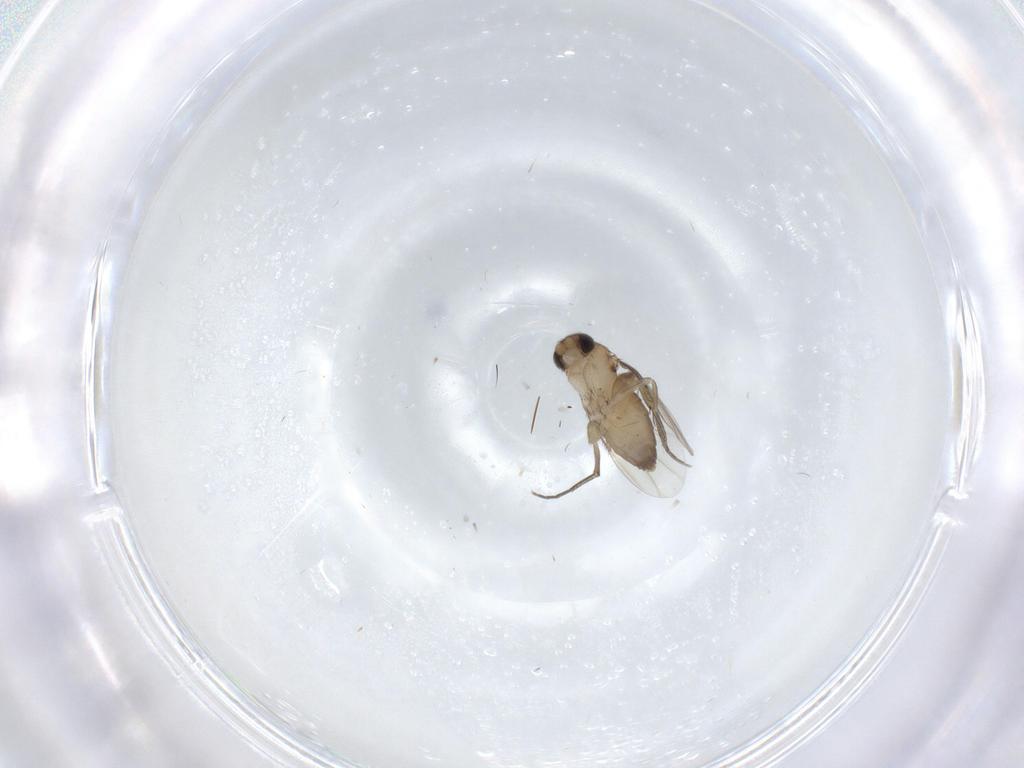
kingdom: Animalia
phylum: Arthropoda
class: Insecta
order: Diptera
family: Phoridae
